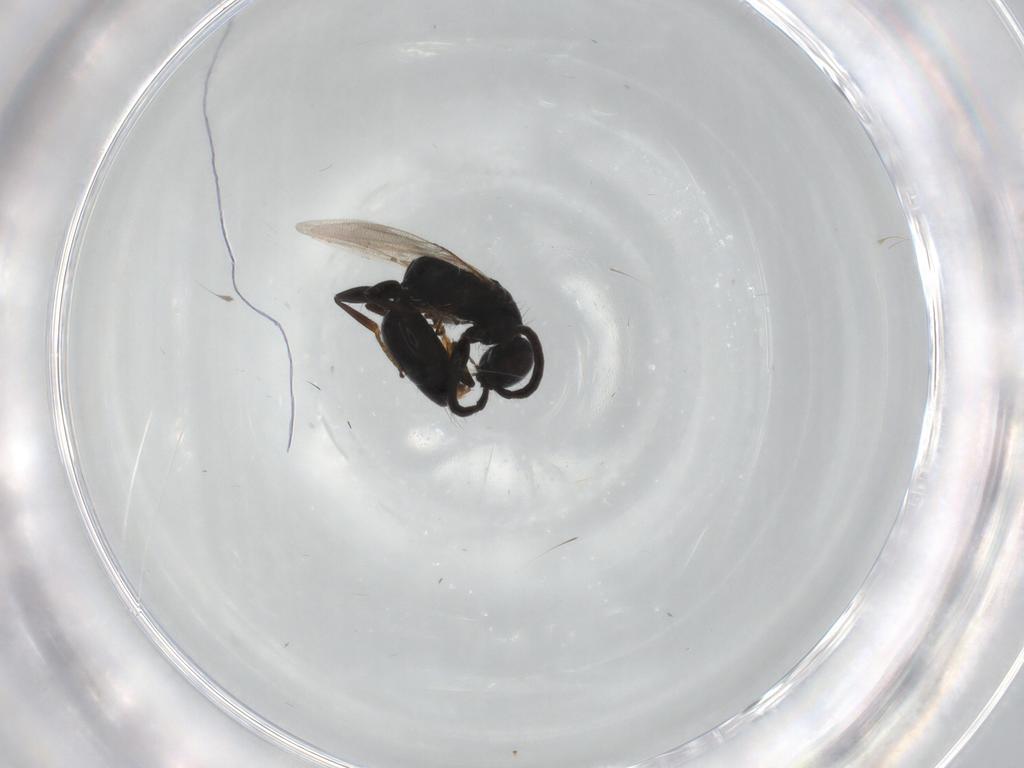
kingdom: Animalia
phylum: Arthropoda
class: Insecta
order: Hymenoptera
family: Bethylidae
